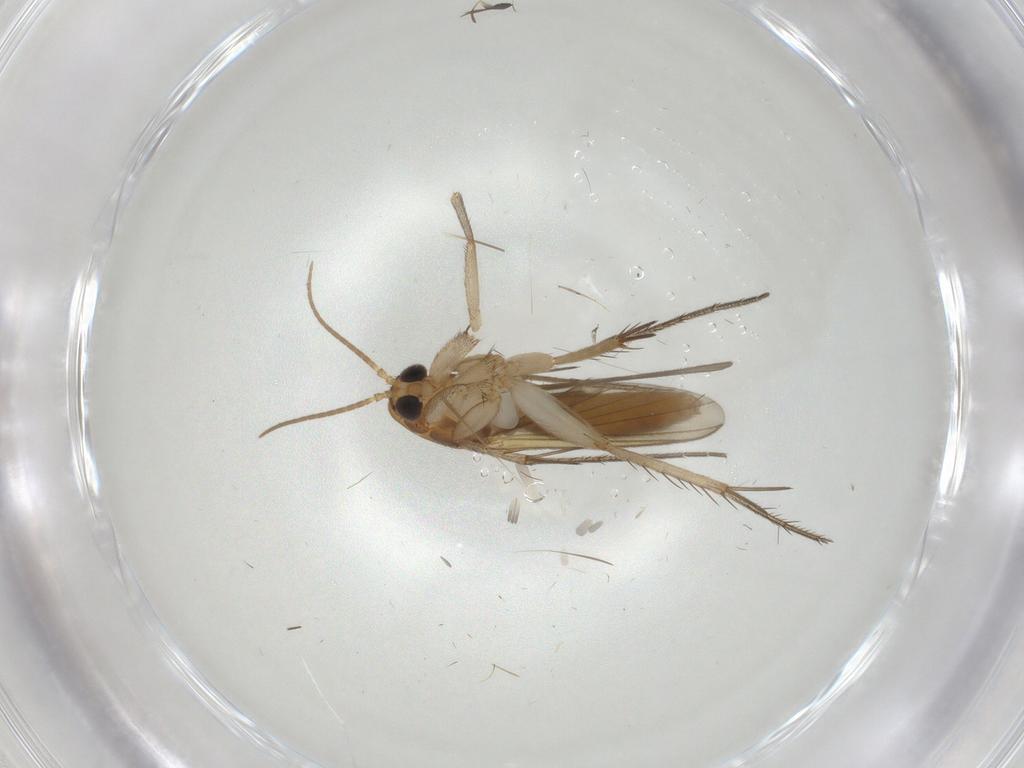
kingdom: Animalia
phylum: Arthropoda
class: Insecta
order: Diptera
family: Mycetophilidae
